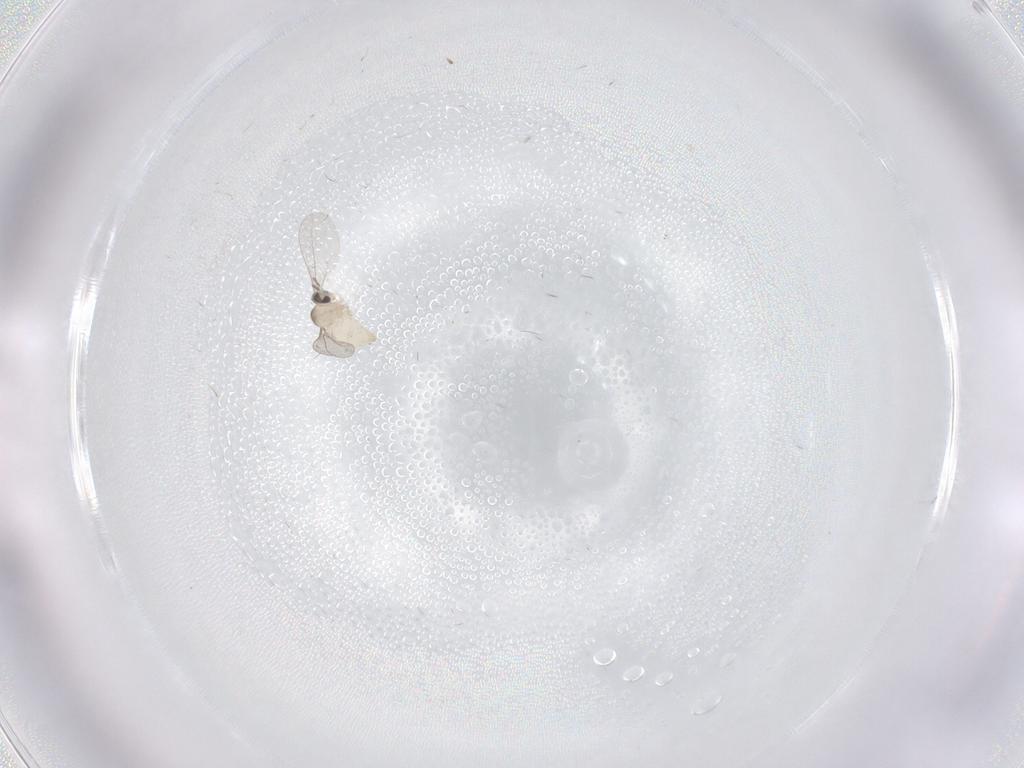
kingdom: Animalia
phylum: Arthropoda
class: Insecta
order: Diptera
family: Cecidomyiidae
